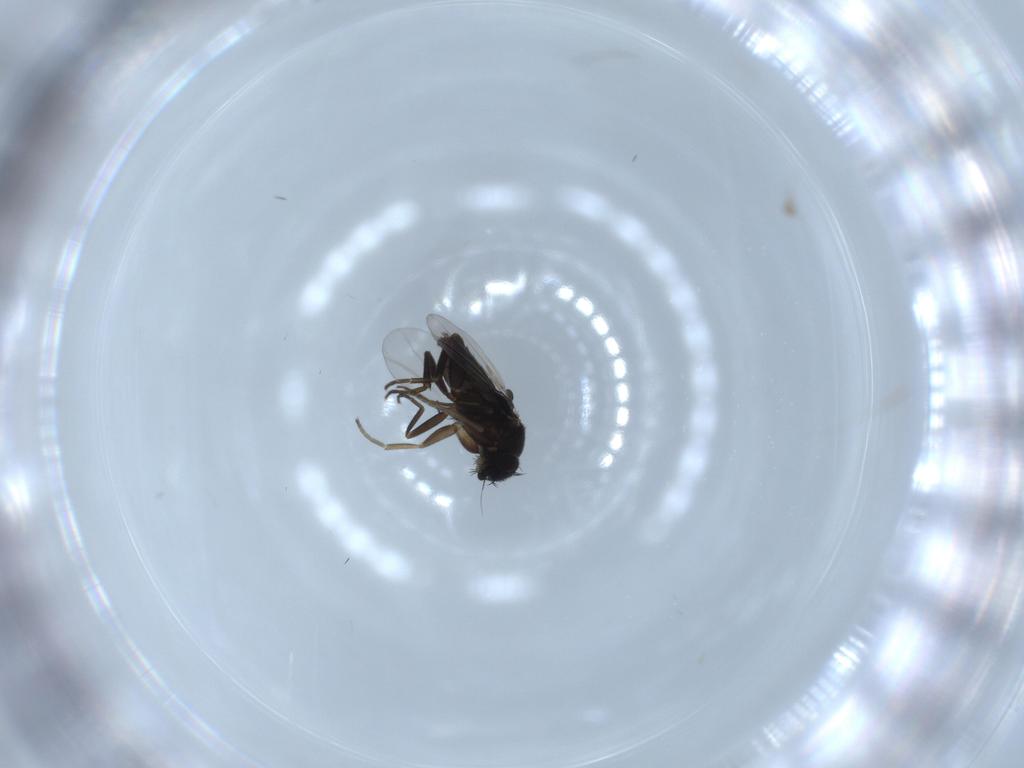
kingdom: Animalia
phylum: Arthropoda
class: Insecta
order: Diptera
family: Phoridae
